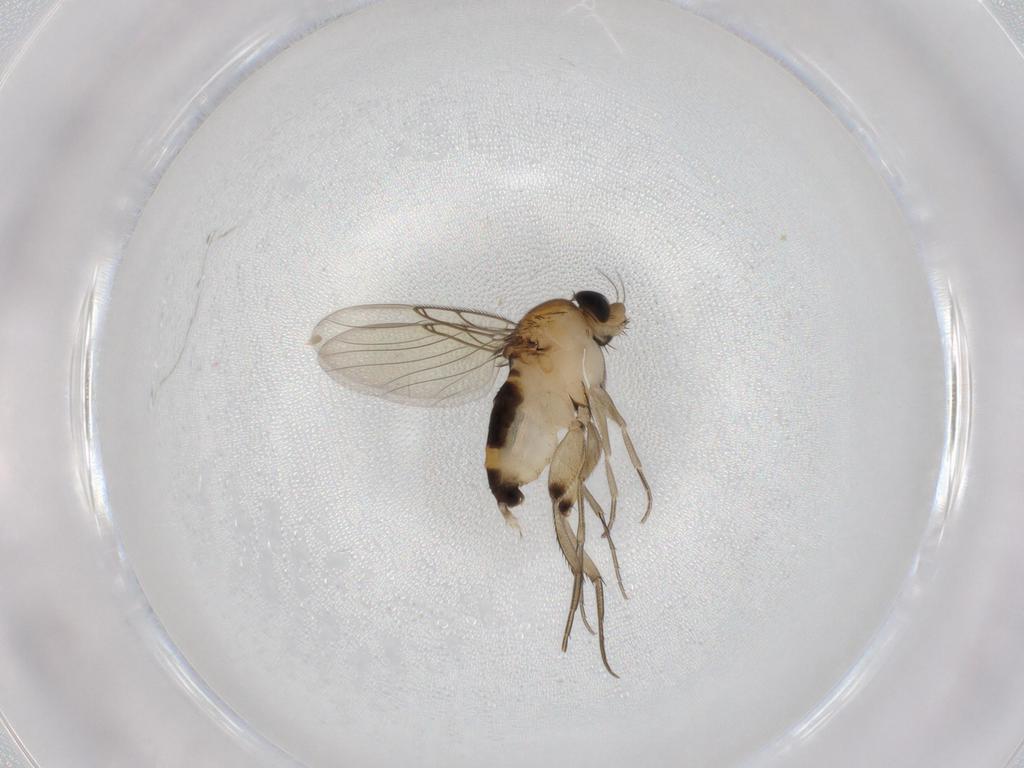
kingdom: Animalia
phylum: Arthropoda
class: Insecta
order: Diptera
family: Phoridae
